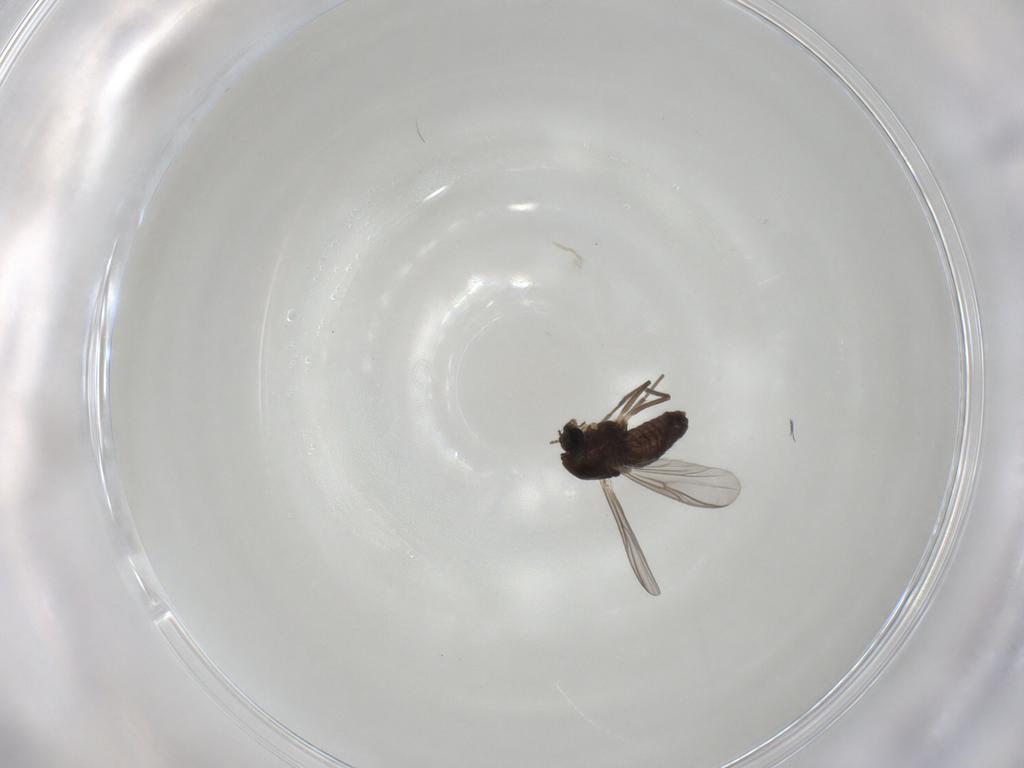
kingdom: Animalia
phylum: Arthropoda
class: Insecta
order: Diptera
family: Chironomidae
